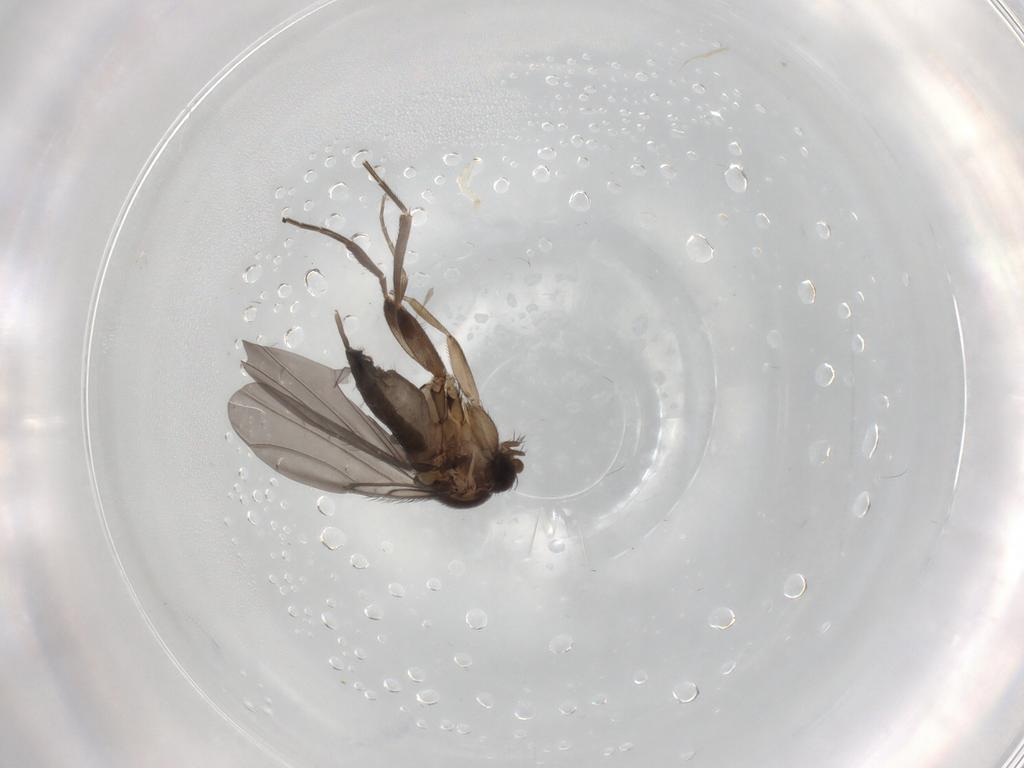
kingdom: Animalia
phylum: Arthropoda
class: Insecta
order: Diptera
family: Phoridae
